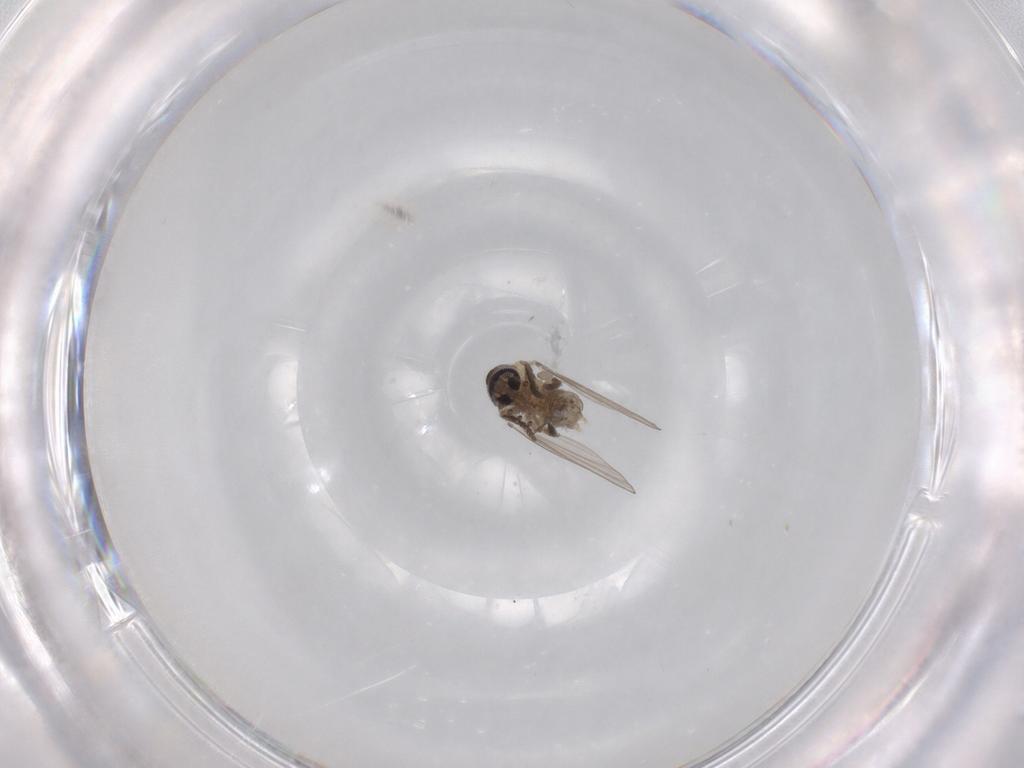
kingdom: Animalia
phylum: Arthropoda
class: Insecta
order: Diptera
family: Psychodidae
